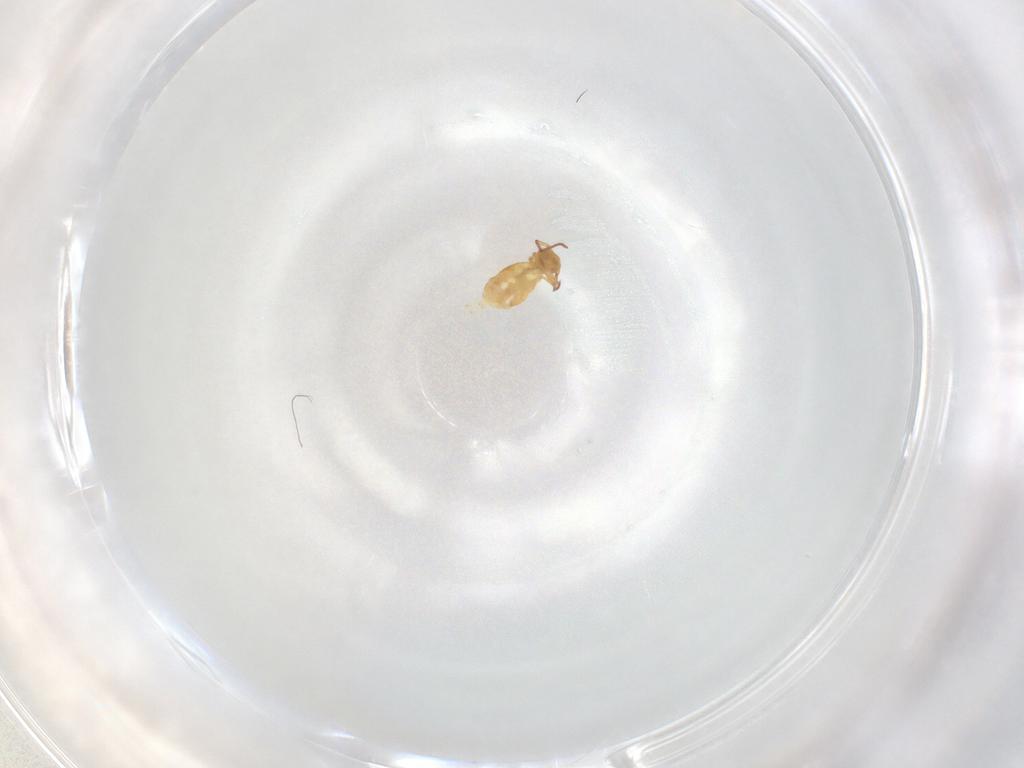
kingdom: Animalia
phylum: Arthropoda
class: Collembola
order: Symphypleona
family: Bourletiellidae
